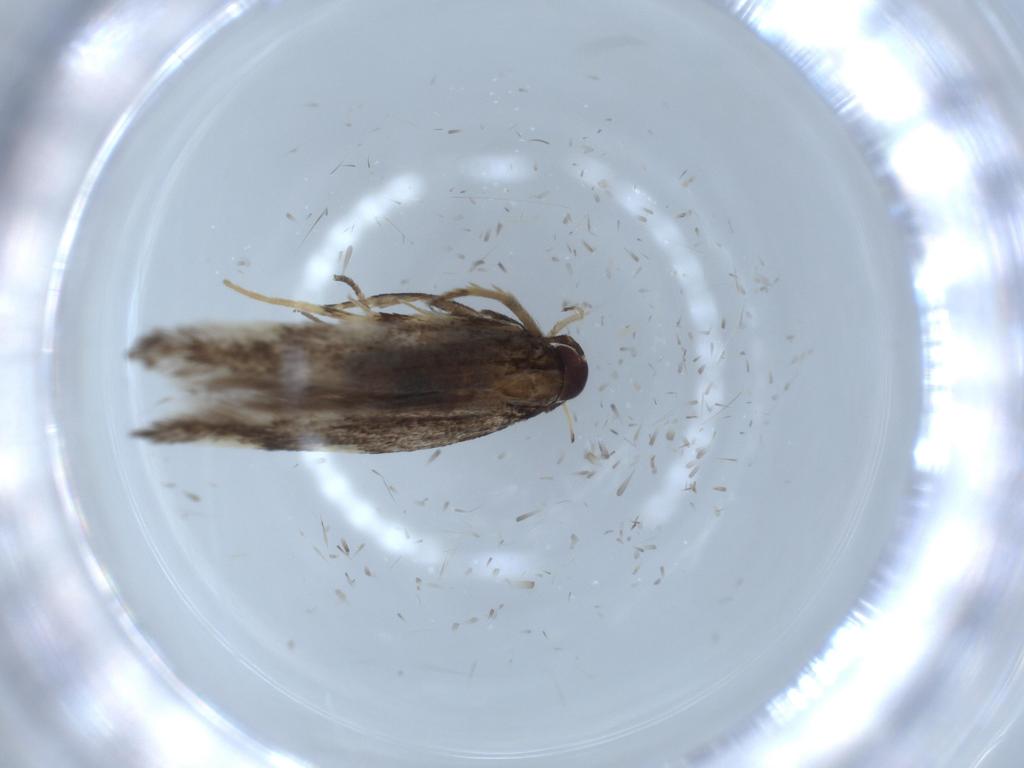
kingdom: Animalia
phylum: Arthropoda
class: Insecta
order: Lepidoptera
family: Cosmopterigidae
